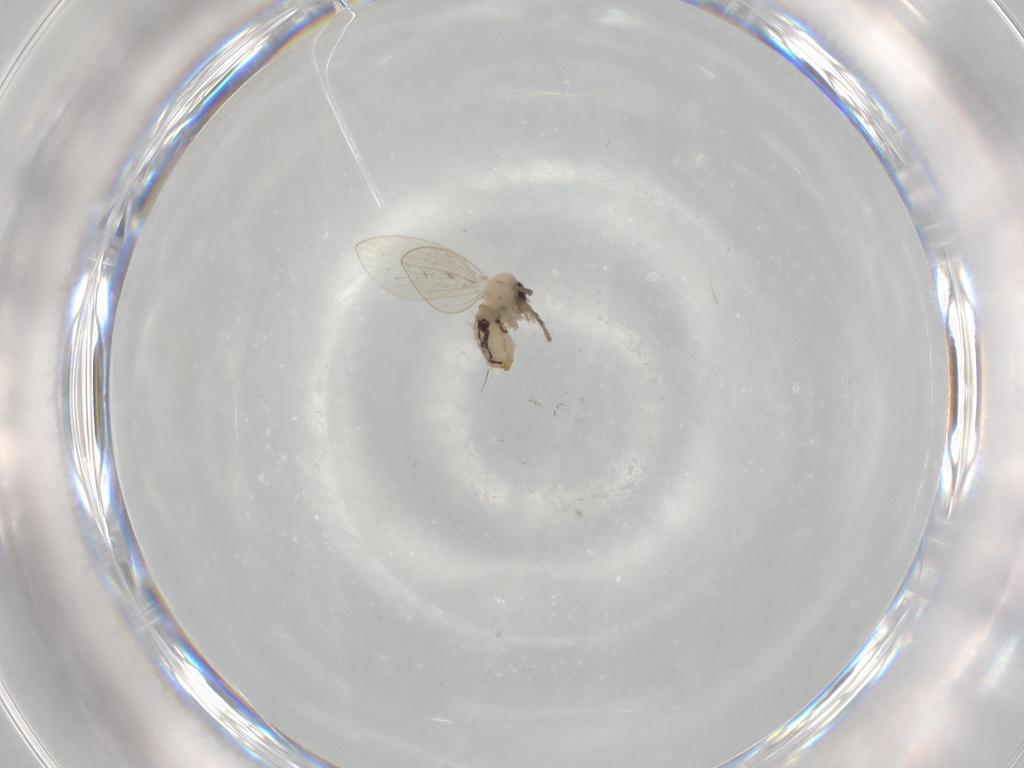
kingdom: Animalia
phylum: Arthropoda
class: Insecta
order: Diptera
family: Psychodidae
